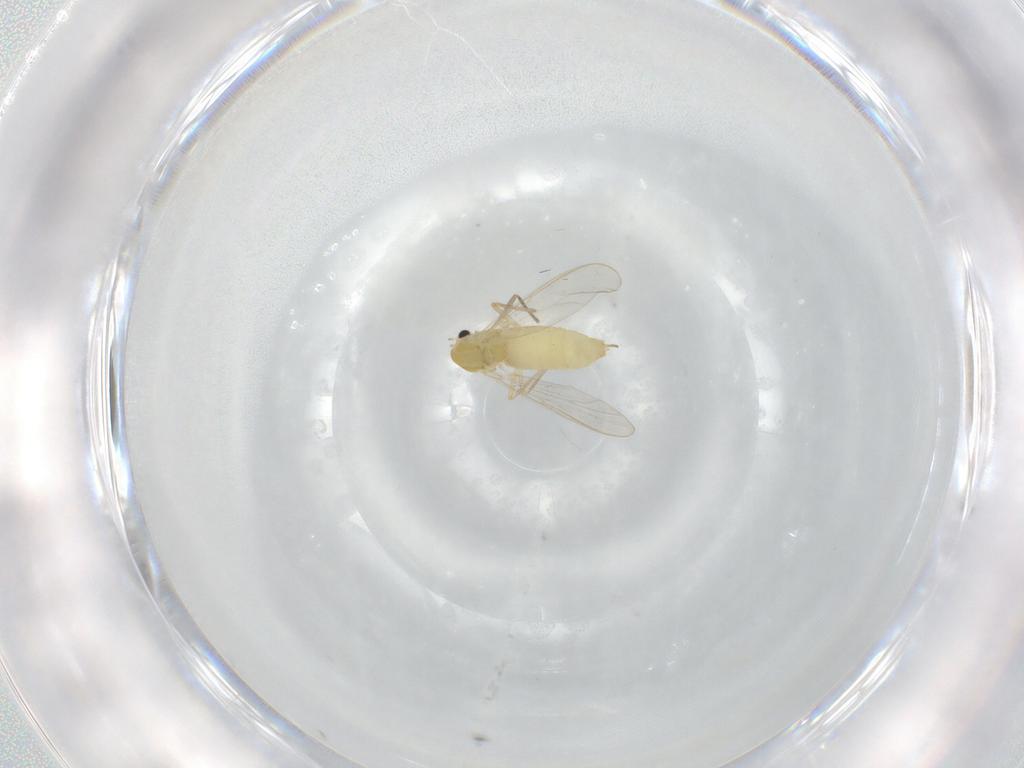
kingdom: Animalia
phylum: Arthropoda
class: Insecta
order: Diptera
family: Chironomidae
